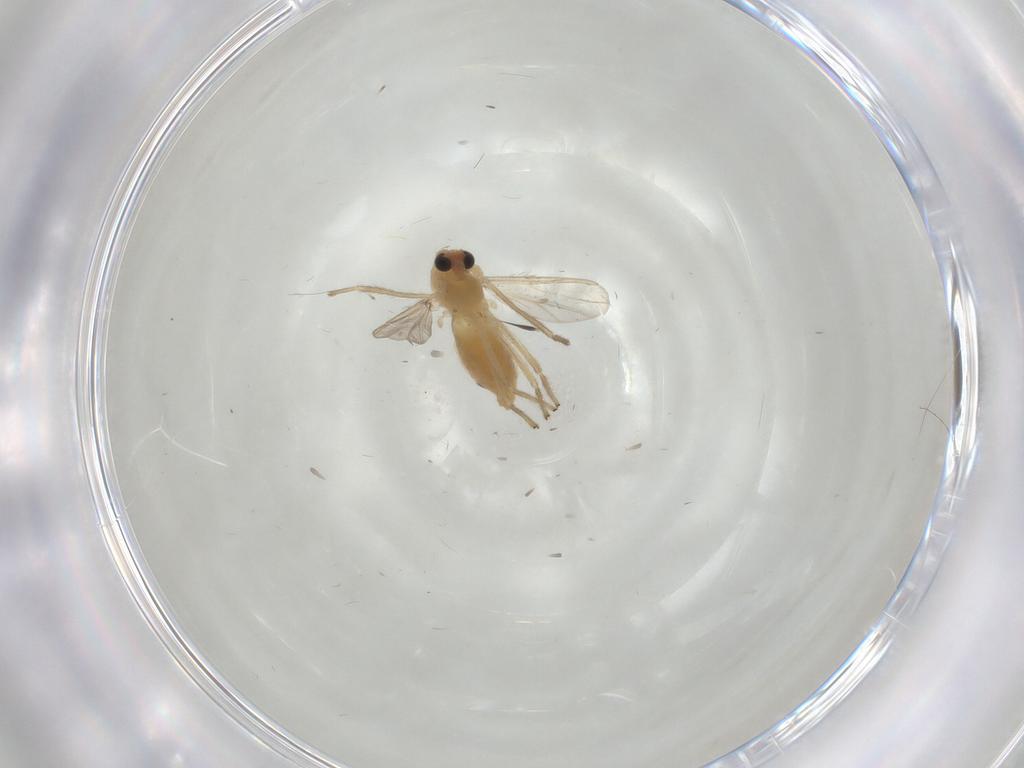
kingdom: Animalia
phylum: Arthropoda
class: Insecta
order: Diptera
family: Chironomidae
